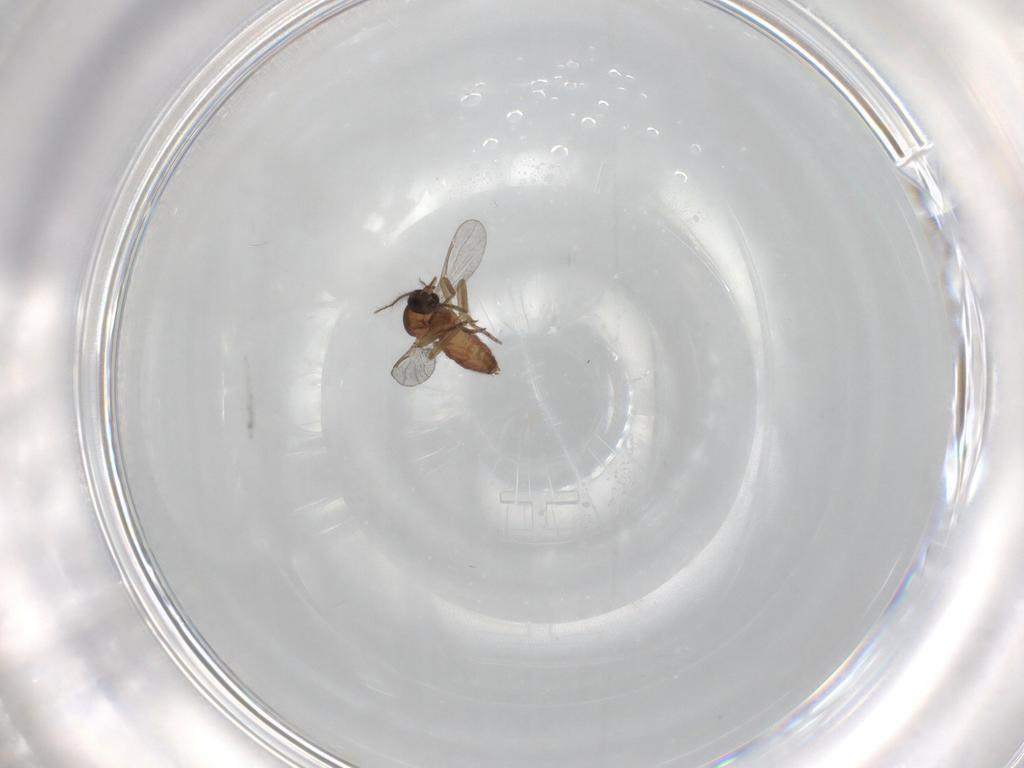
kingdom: Animalia
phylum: Arthropoda
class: Insecta
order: Diptera
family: Ceratopogonidae
